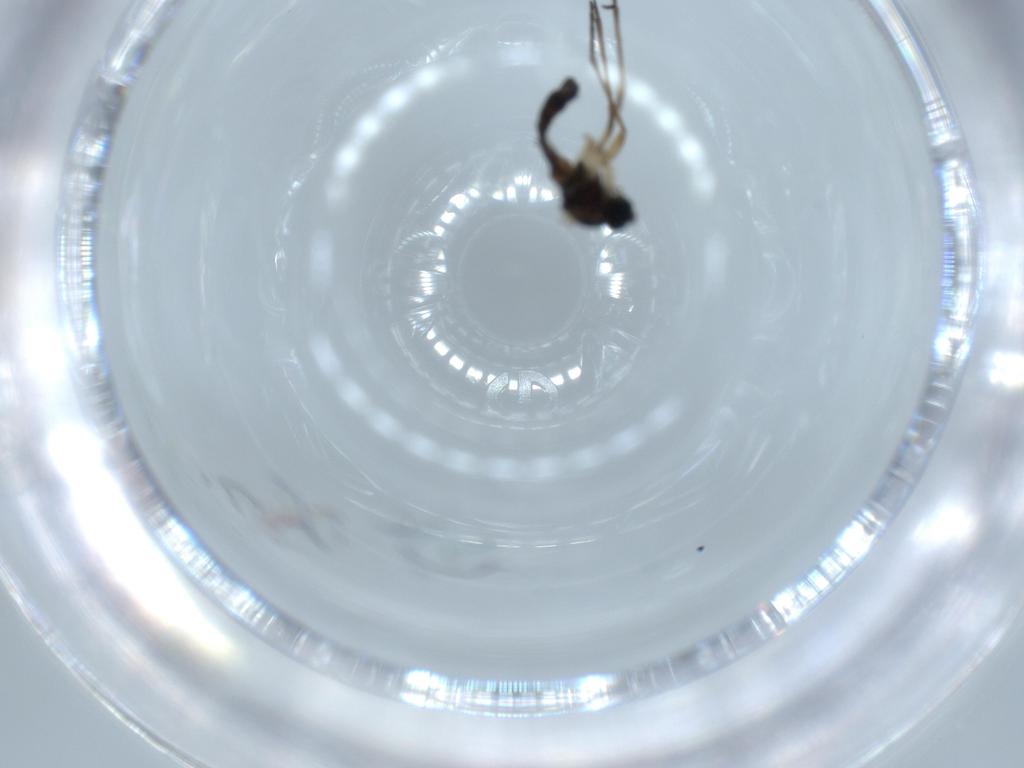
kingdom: Animalia
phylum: Arthropoda
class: Insecta
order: Diptera
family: Sciaridae
